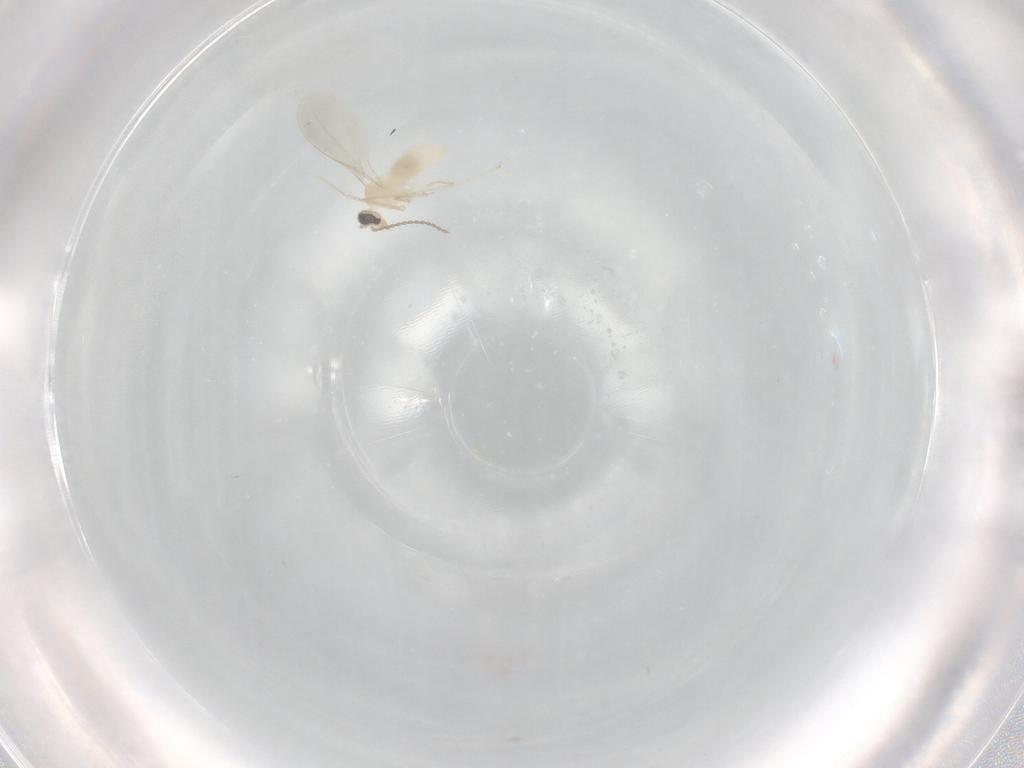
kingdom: Animalia
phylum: Arthropoda
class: Insecta
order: Diptera
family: Cecidomyiidae
